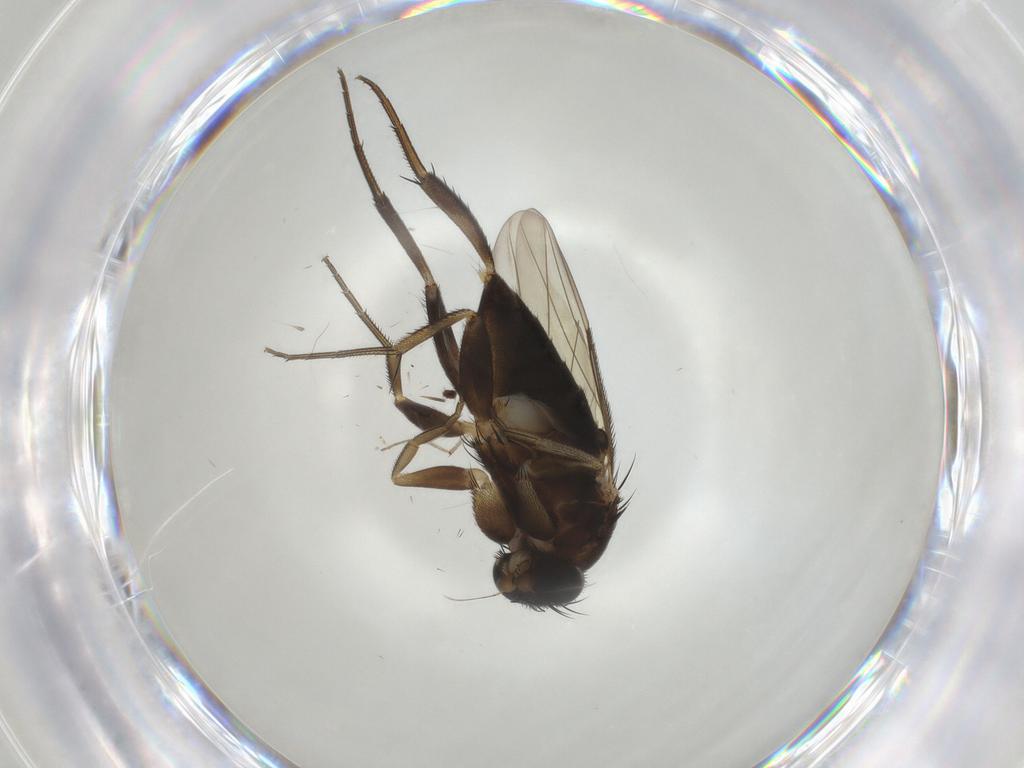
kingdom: Animalia
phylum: Arthropoda
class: Insecta
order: Diptera
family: Phoridae
